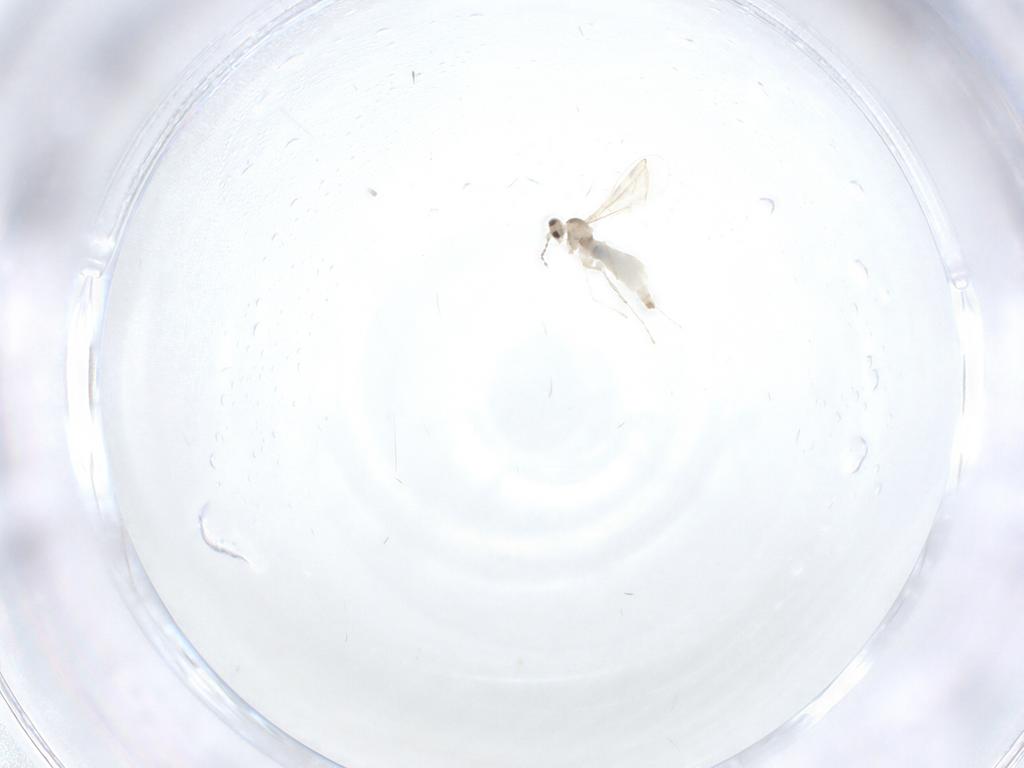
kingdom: Animalia
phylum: Arthropoda
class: Insecta
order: Diptera
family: Cecidomyiidae
